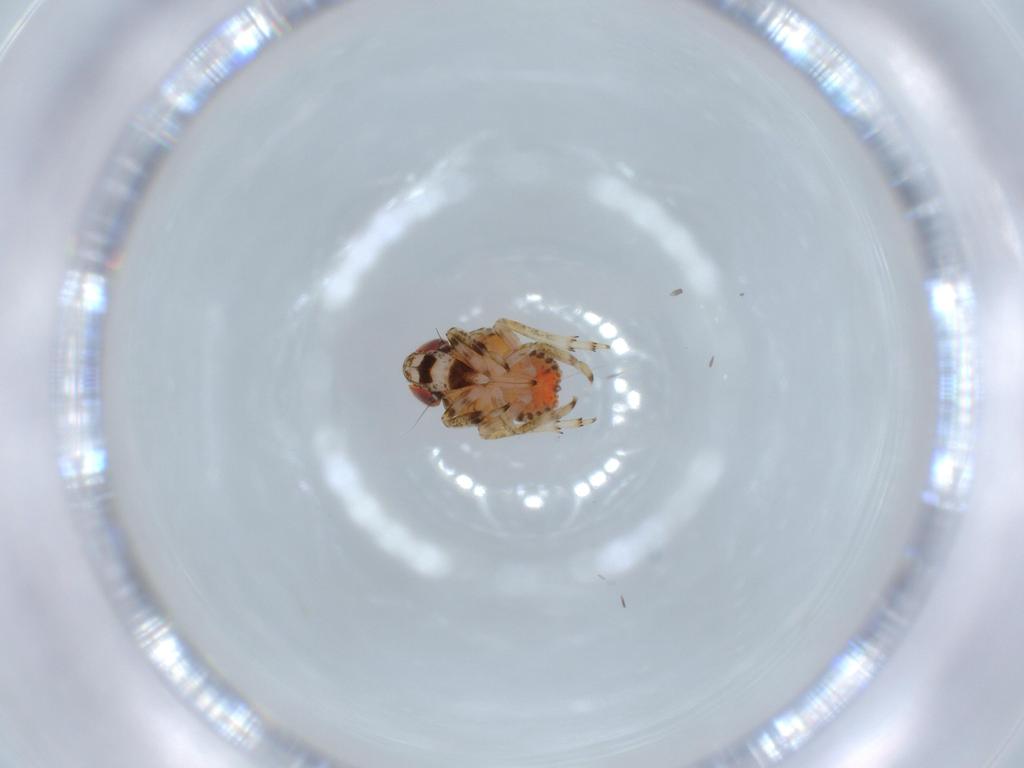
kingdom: Animalia
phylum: Arthropoda
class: Insecta
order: Hemiptera
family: Issidae
